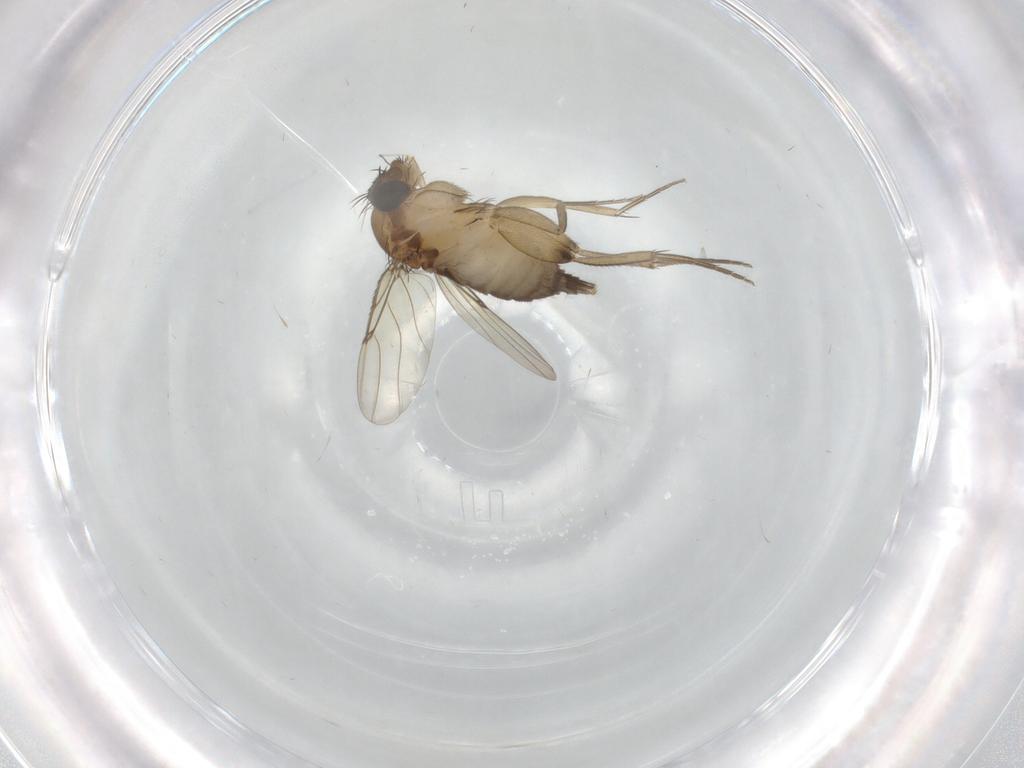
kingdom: Animalia
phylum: Arthropoda
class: Insecta
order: Diptera
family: Phoridae
